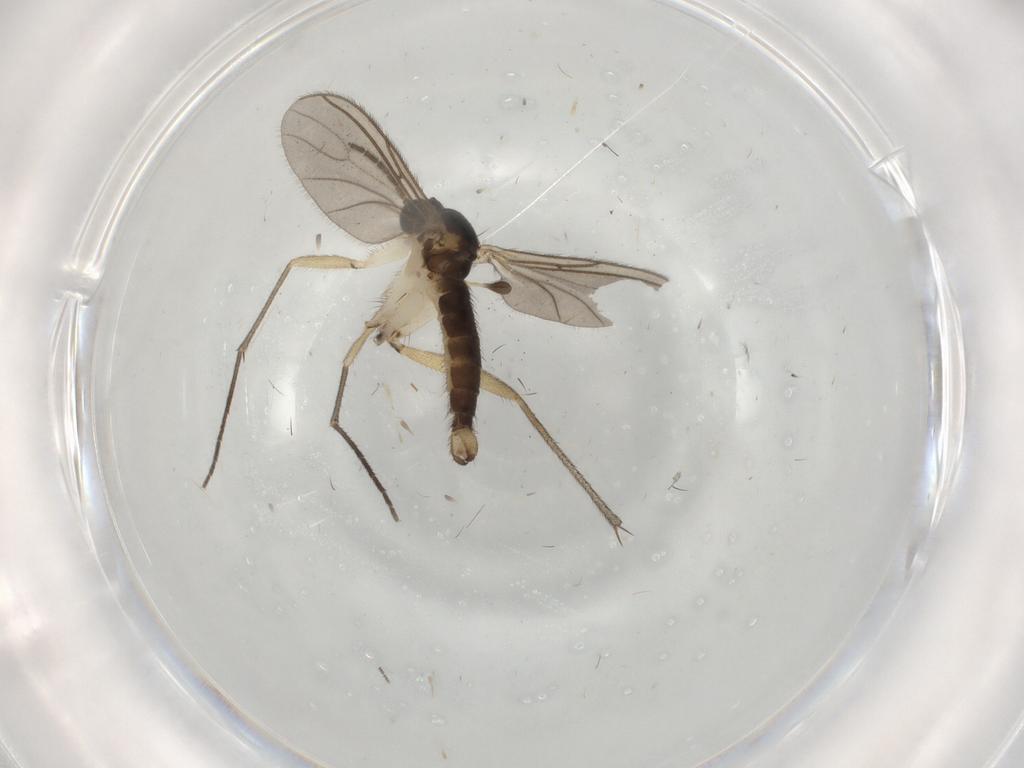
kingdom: Animalia
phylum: Arthropoda
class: Insecta
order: Diptera
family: Sciaridae
